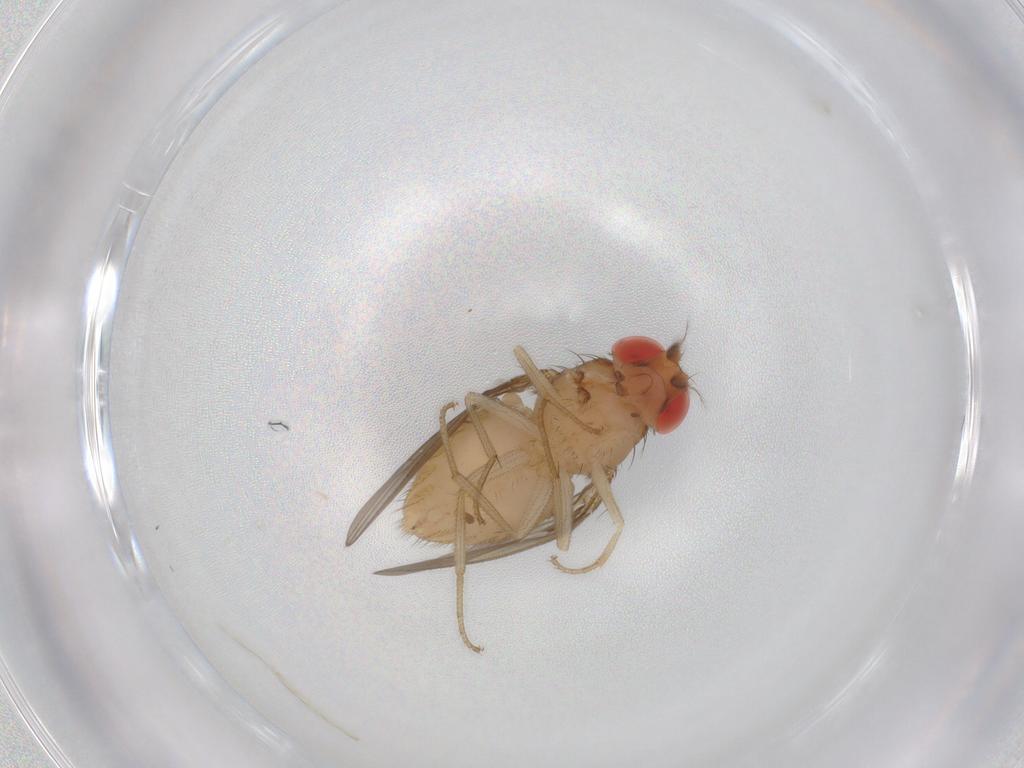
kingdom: Animalia
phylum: Arthropoda
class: Insecta
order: Diptera
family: Drosophilidae
